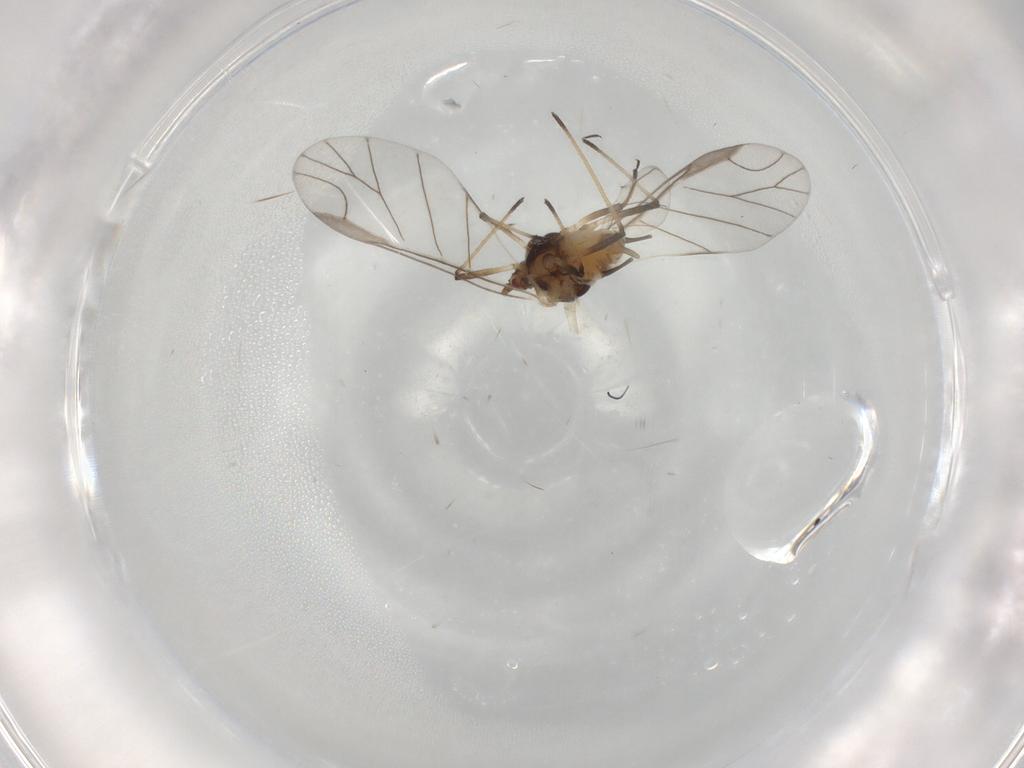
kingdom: Animalia
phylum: Arthropoda
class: Insecta
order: Hemiptera
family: Aphididae
